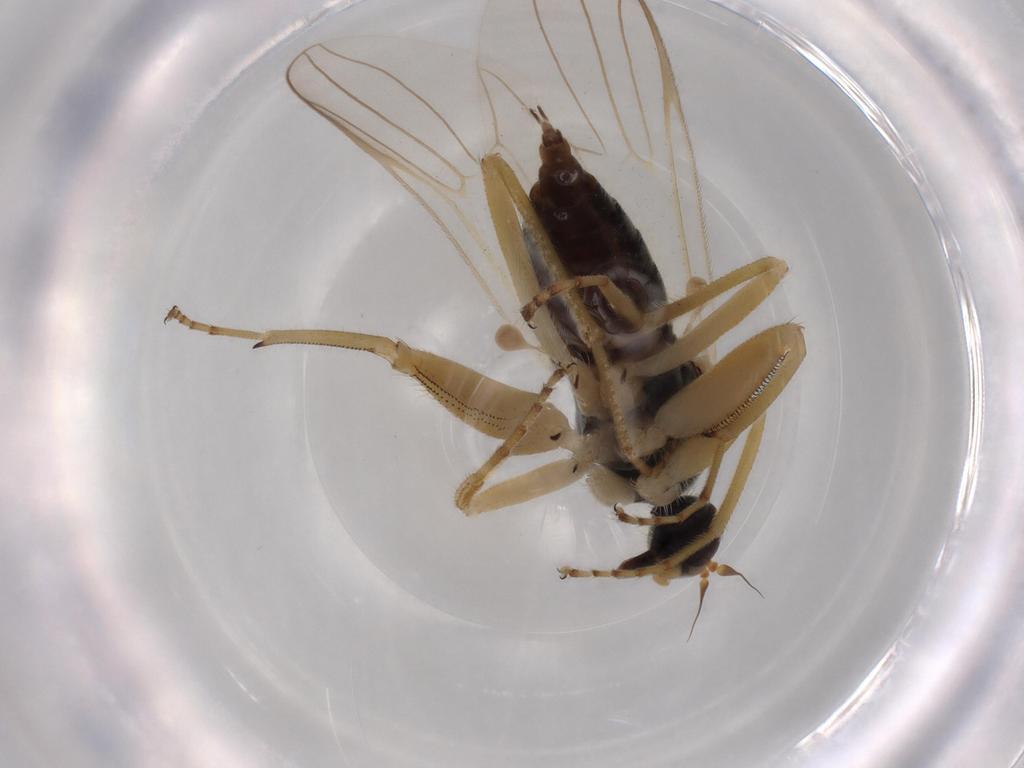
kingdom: Animalia
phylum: Arthropoda
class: Insecta
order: Diptera
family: Hybotidae
